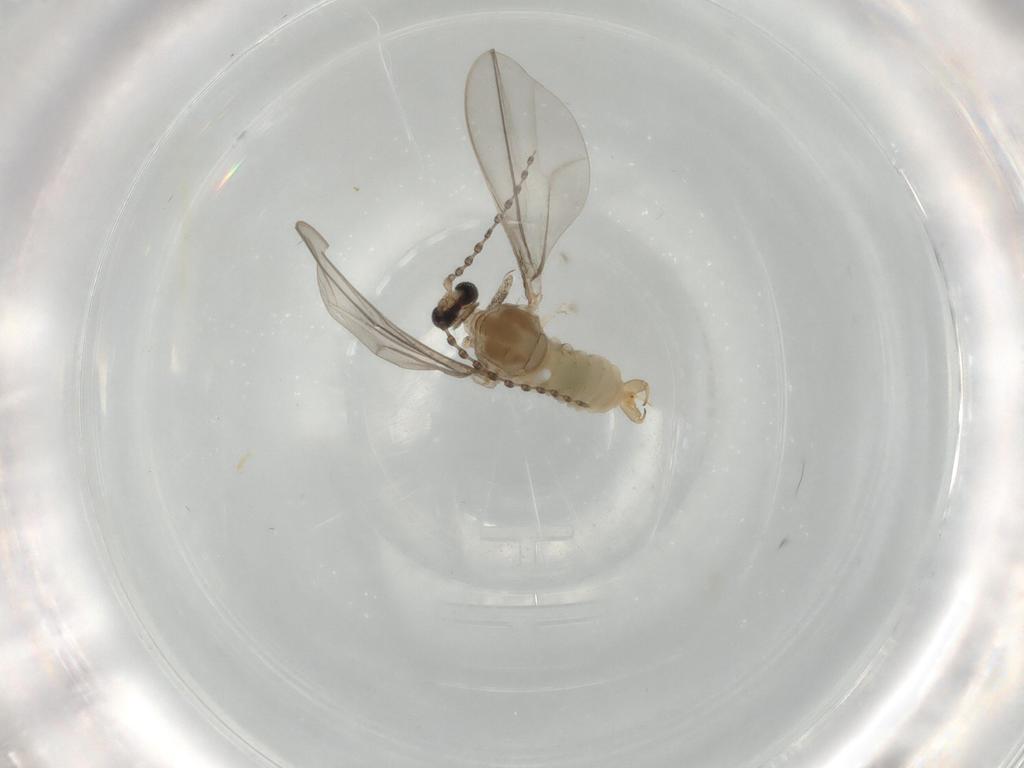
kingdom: Animalia
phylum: Arthropoda
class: Insecta
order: Diptera
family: Cecidomyiidae
